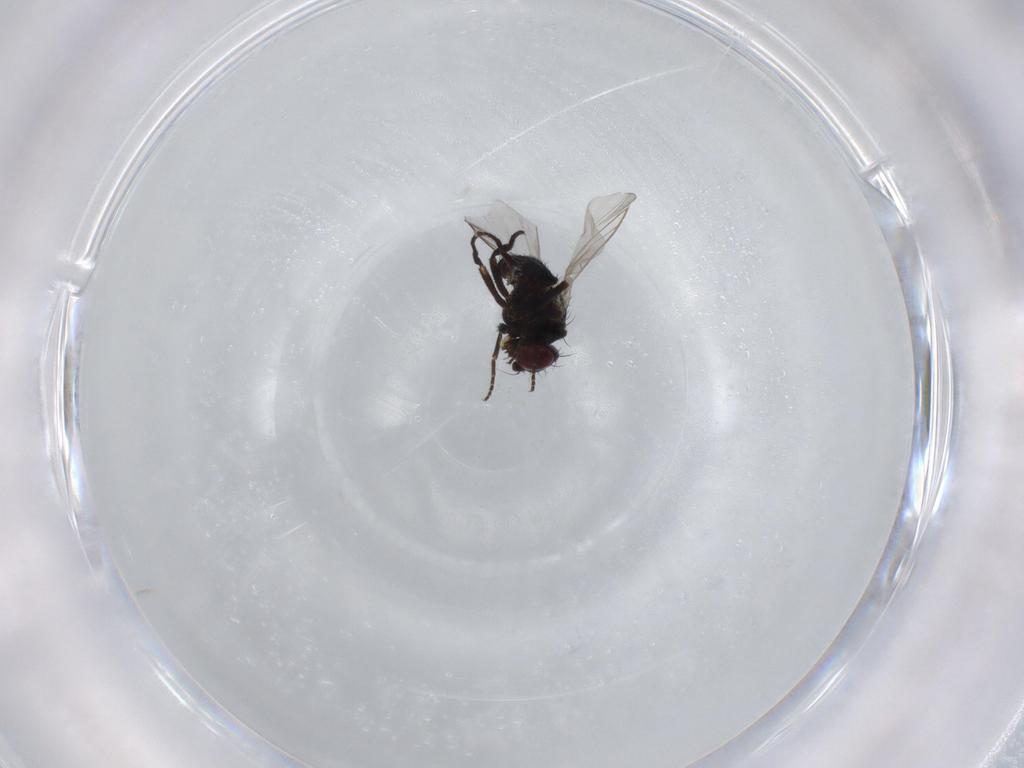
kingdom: Animalia
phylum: Arthropoda
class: Insecta
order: Diptera
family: Agromyzidae
